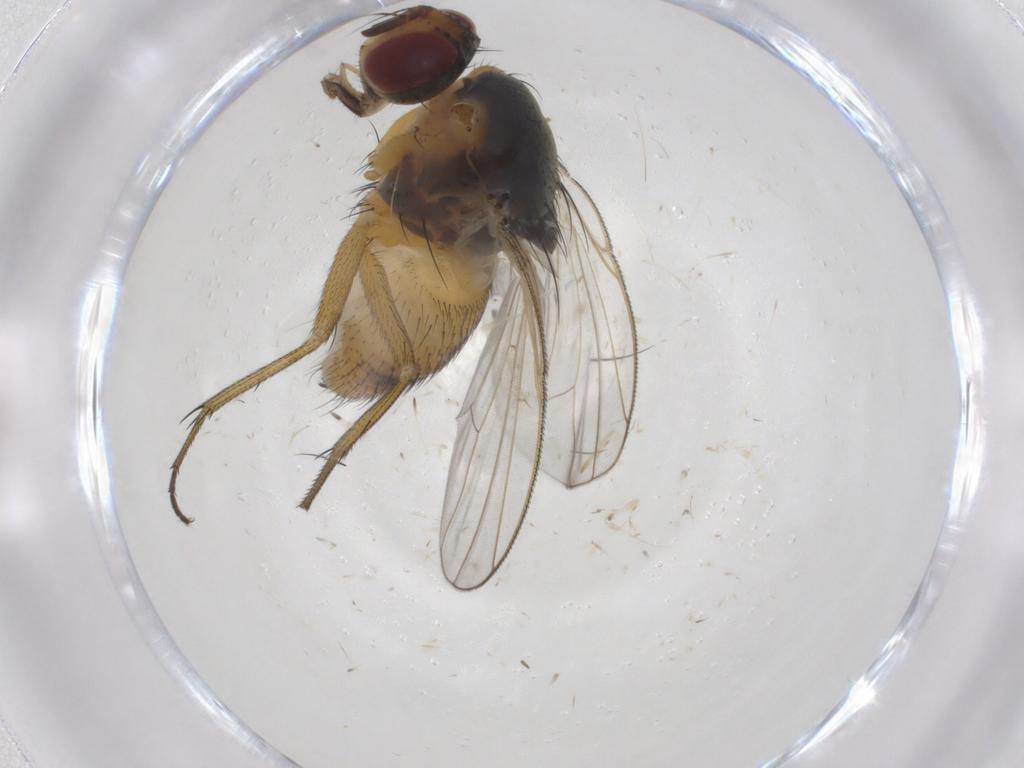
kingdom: Animalia
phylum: Arthropoda
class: Insecta
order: Diptera
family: Muscidae
